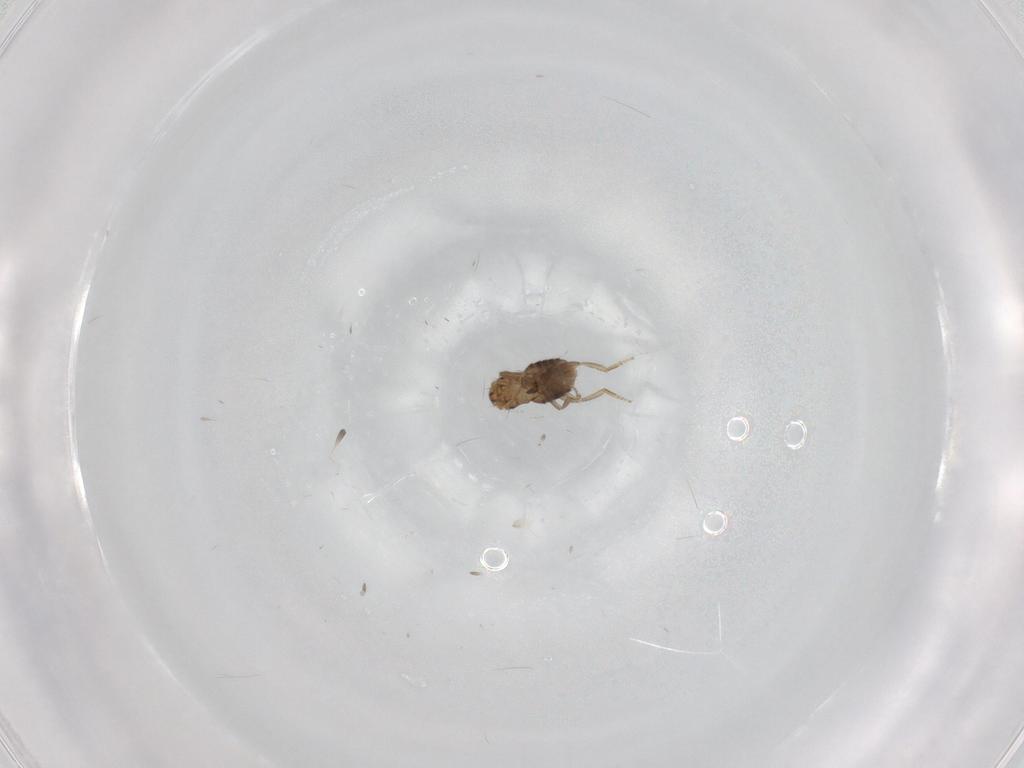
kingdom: Animalia
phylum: Arthropoda
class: Insecta
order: Diptera
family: Cecidomyiidae
